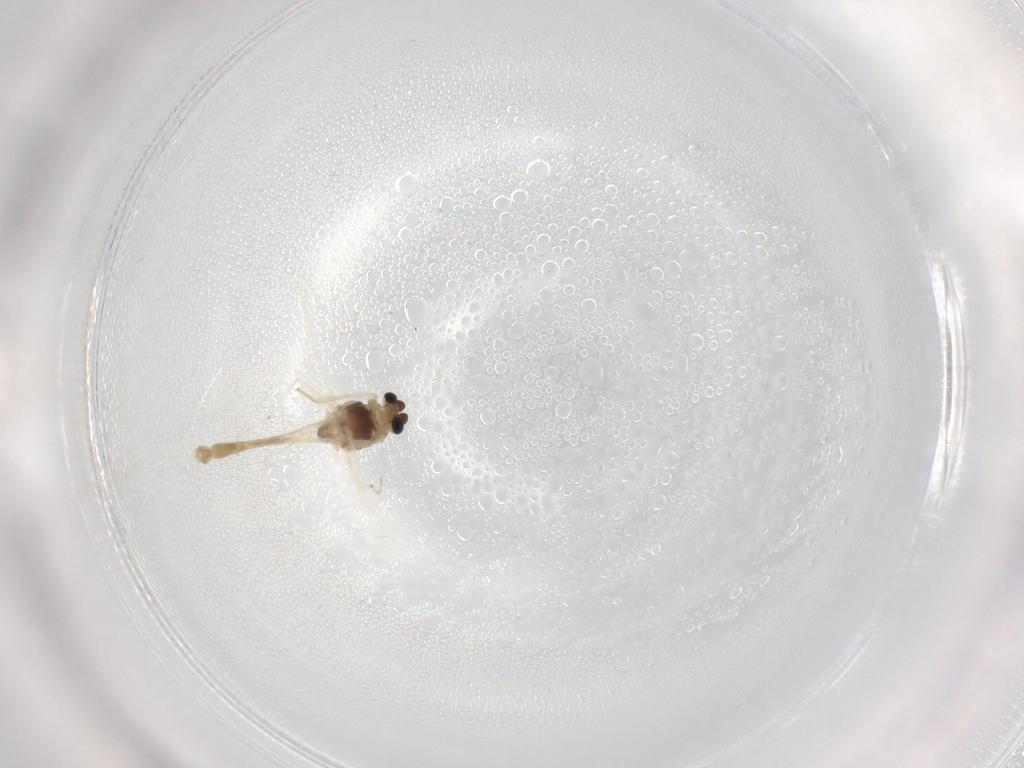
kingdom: Animalia
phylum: Arthropoda
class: Insecta
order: Diptera
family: Chironomidae
